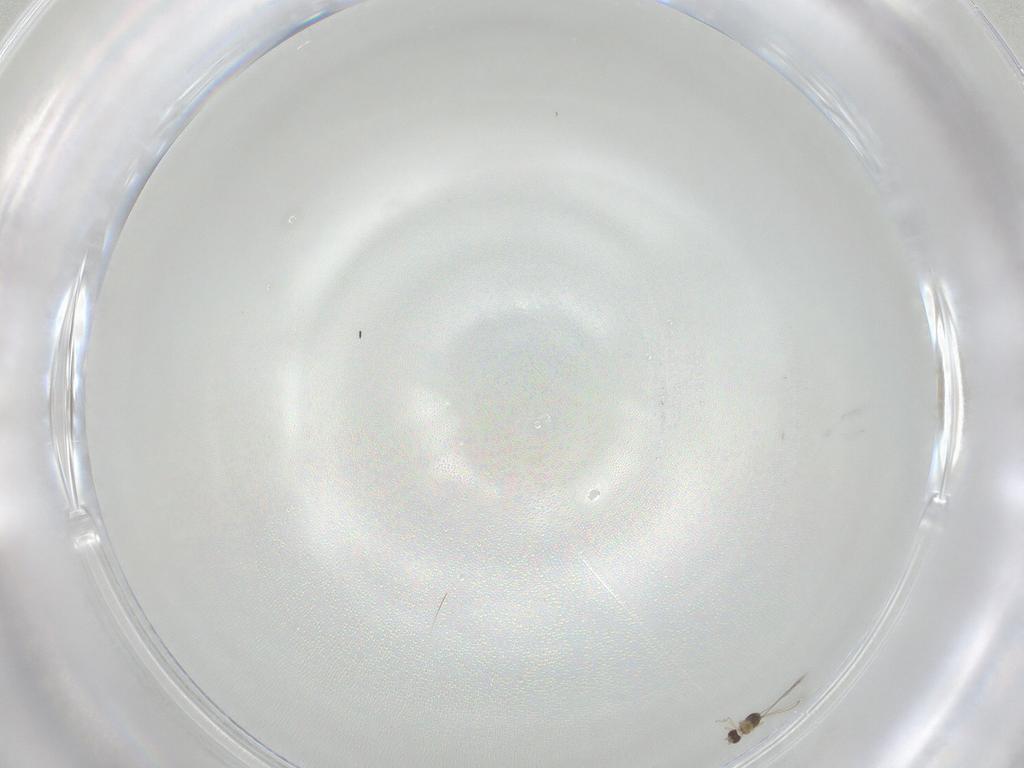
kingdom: Animalia
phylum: Arthropoda
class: Insecta
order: Hymenoptera
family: Mymaridae
